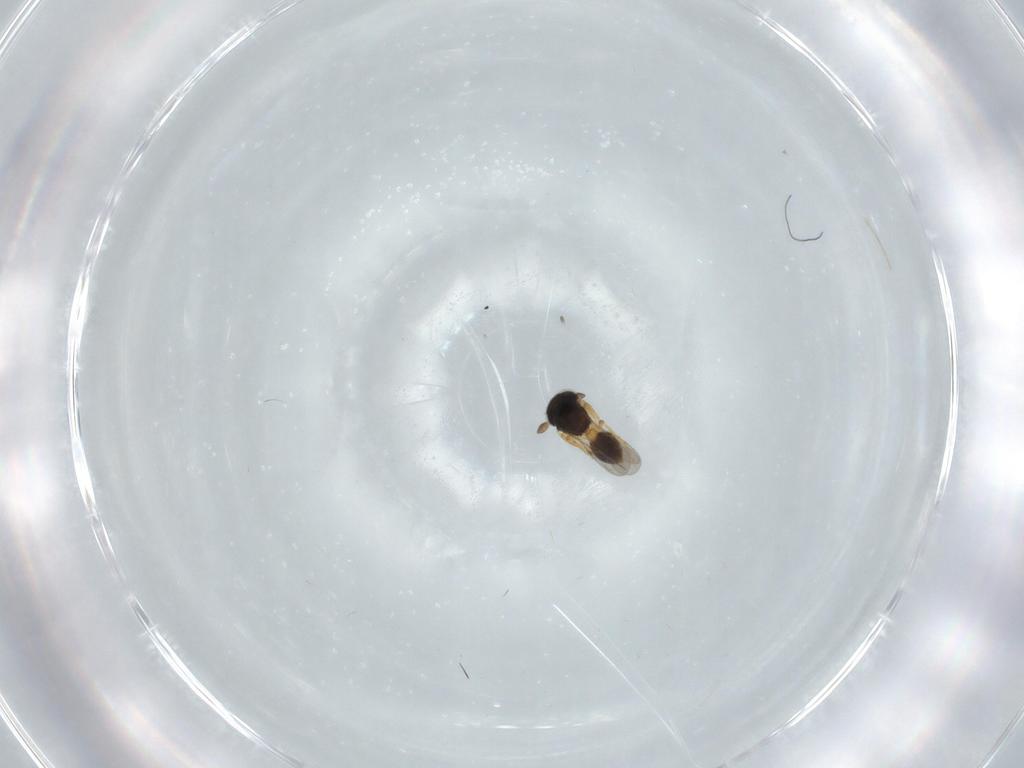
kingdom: Animalia
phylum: Arthropoda
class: Insecta
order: Hymenoptera
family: Scelionidae
